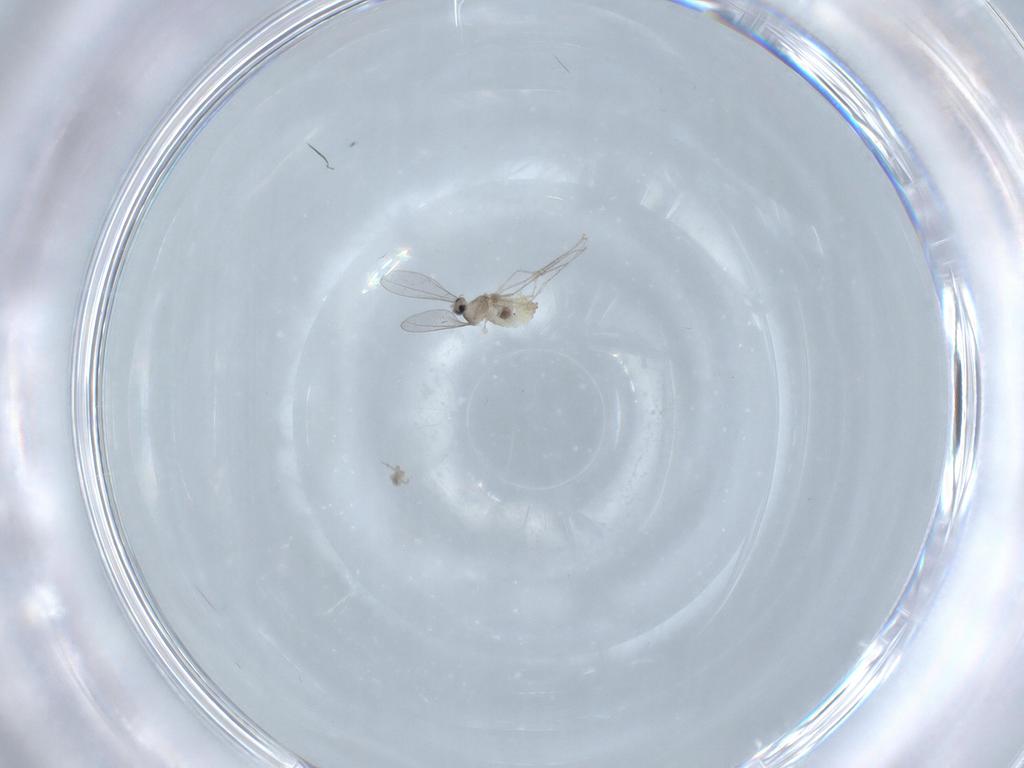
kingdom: Animalia
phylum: Arthropoda
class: Insecta
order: Diptera
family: Cecidomyiidae
